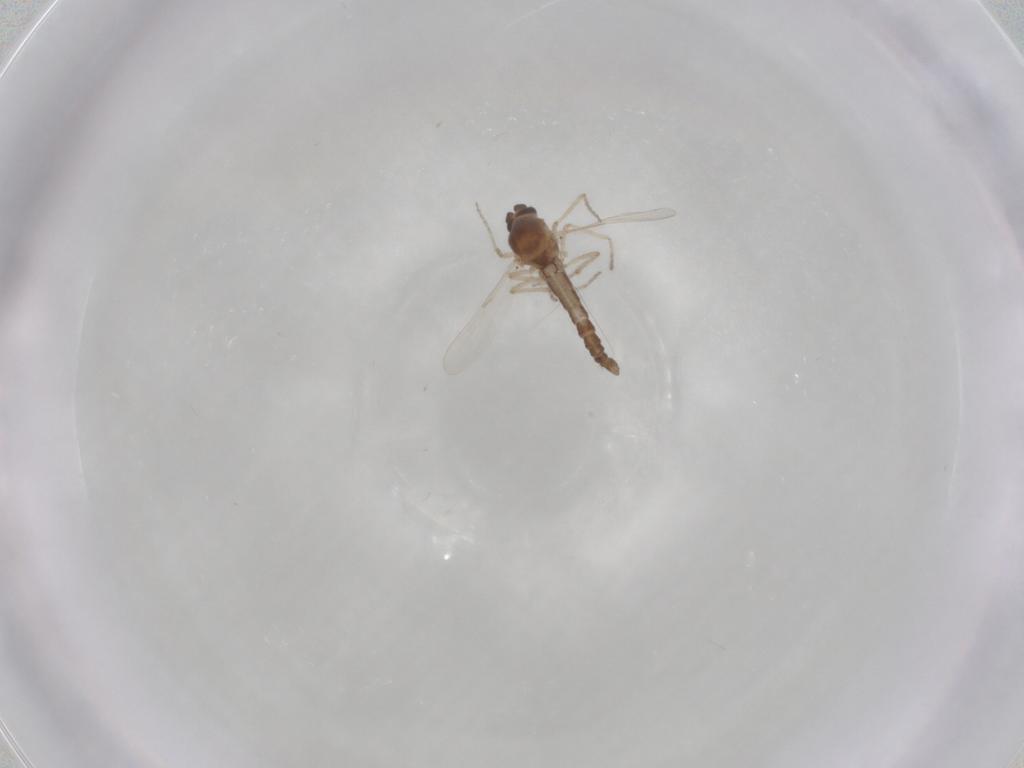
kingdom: Animalia
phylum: Arthropoda
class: Insecta
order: Diptera
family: Ceratopogonidae
